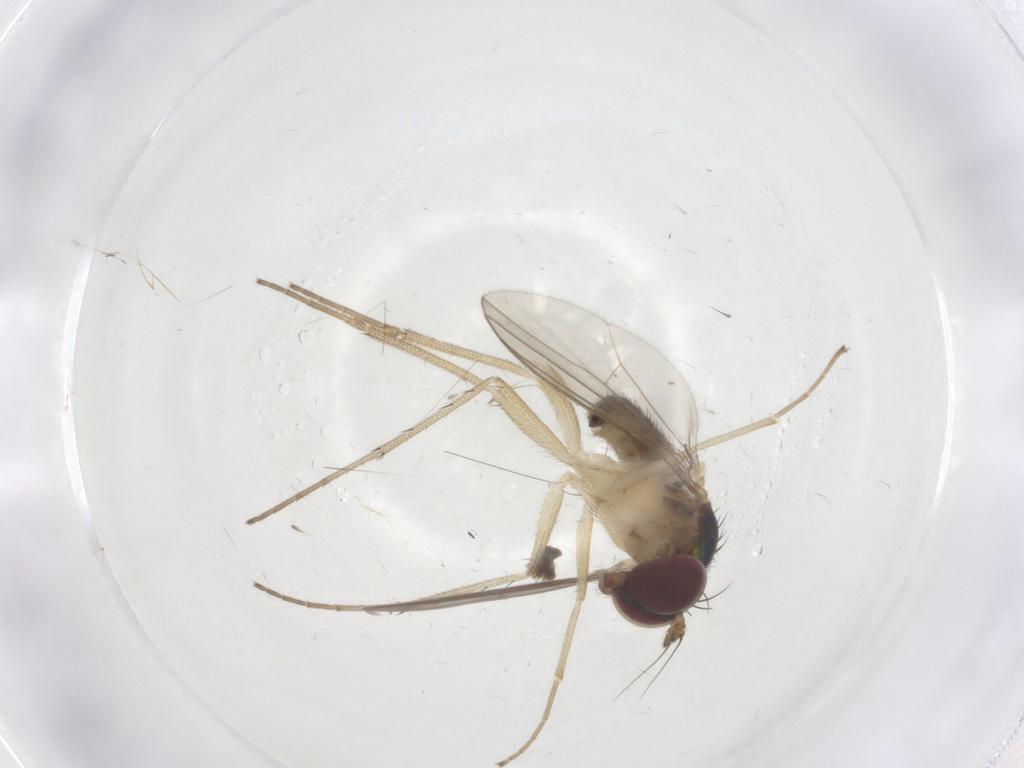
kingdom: Animalia
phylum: Arthropoda
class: Insecta
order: Diptera
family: Dolichopodidae
